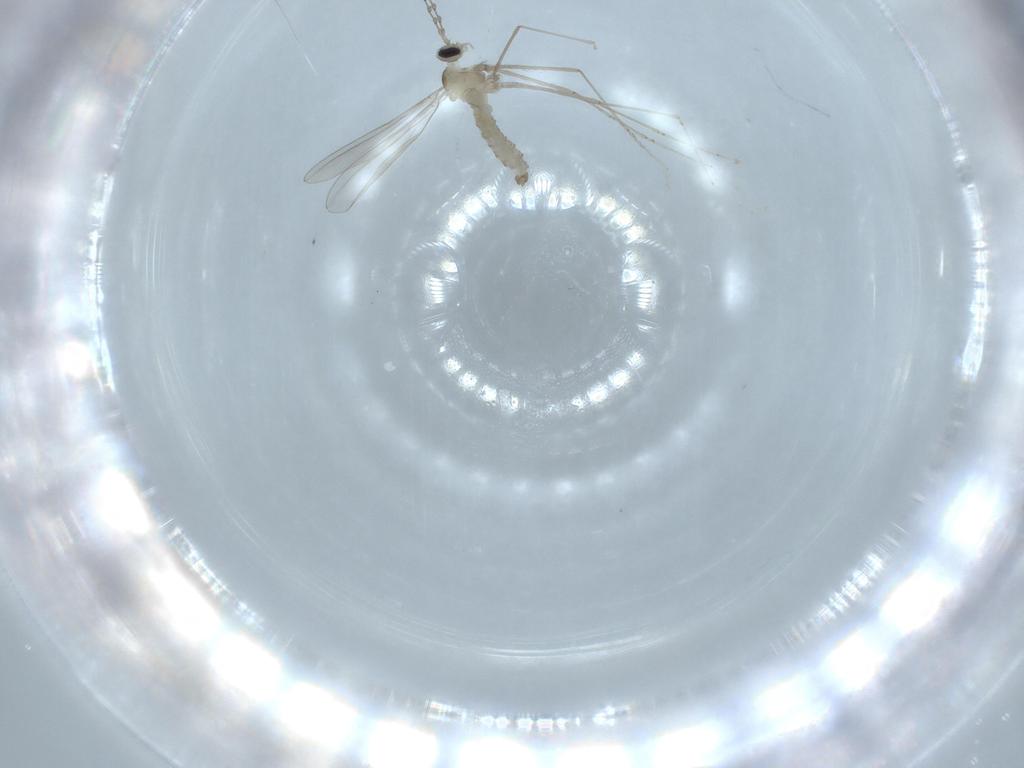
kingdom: Animalia
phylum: Arthropoda
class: Insecta
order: Diptera
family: Cecidomyiidae
